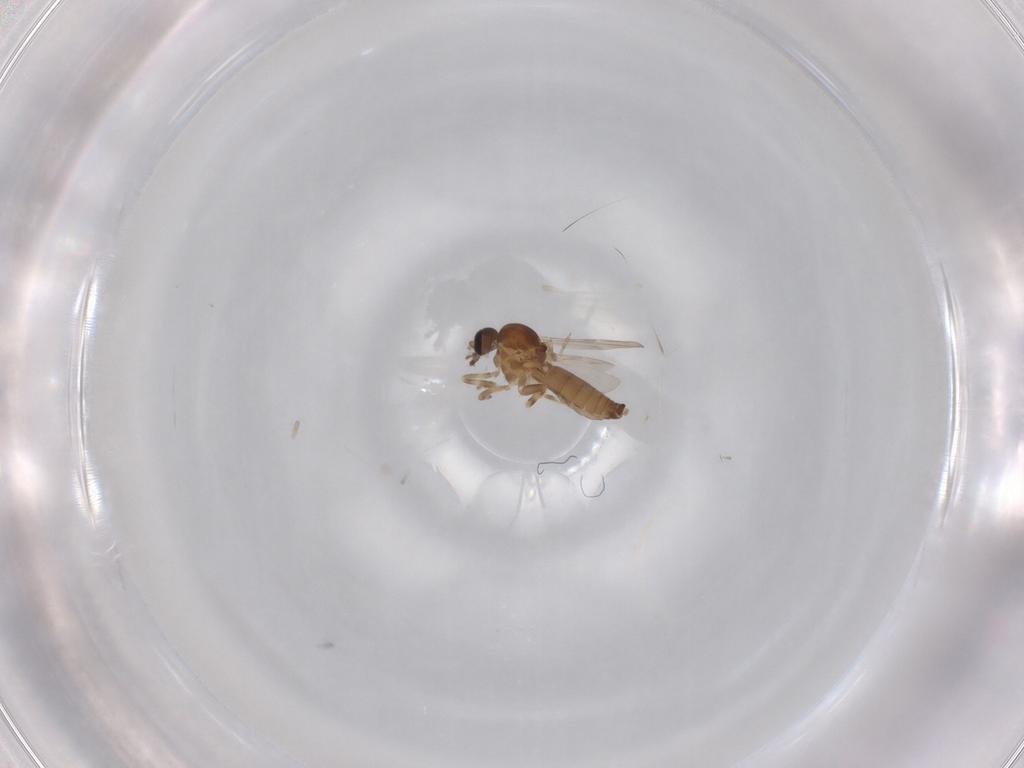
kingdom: Animalia
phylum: Arthropoda
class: Insecta
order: Diptera
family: Ceratopogonidae
